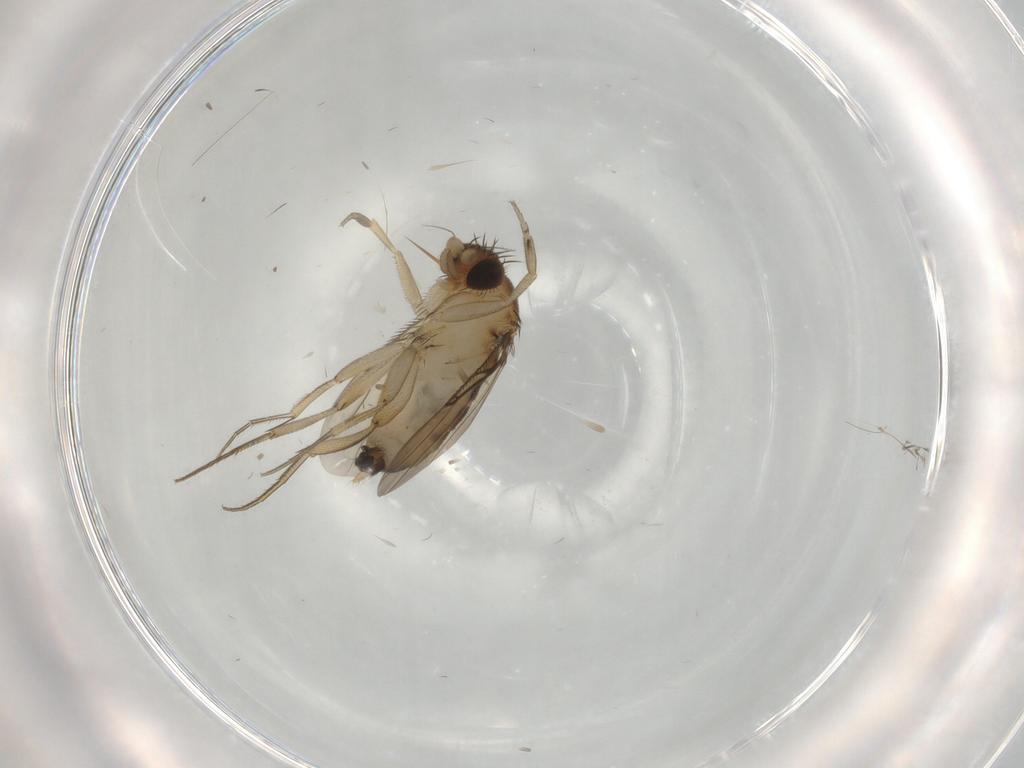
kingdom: Animalia
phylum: Arthropoda
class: Insecta
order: Diptera
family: Phoridae
